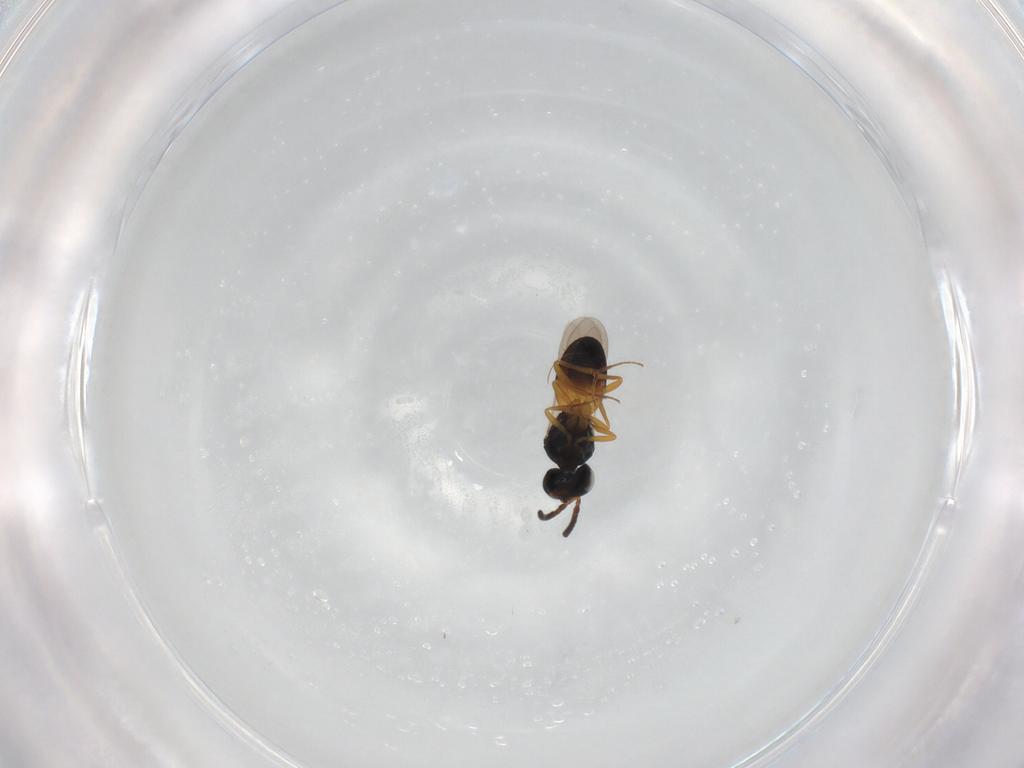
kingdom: Animalia
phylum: Arthropoda
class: Insecta
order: Hymenoptera
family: Scelionidae
